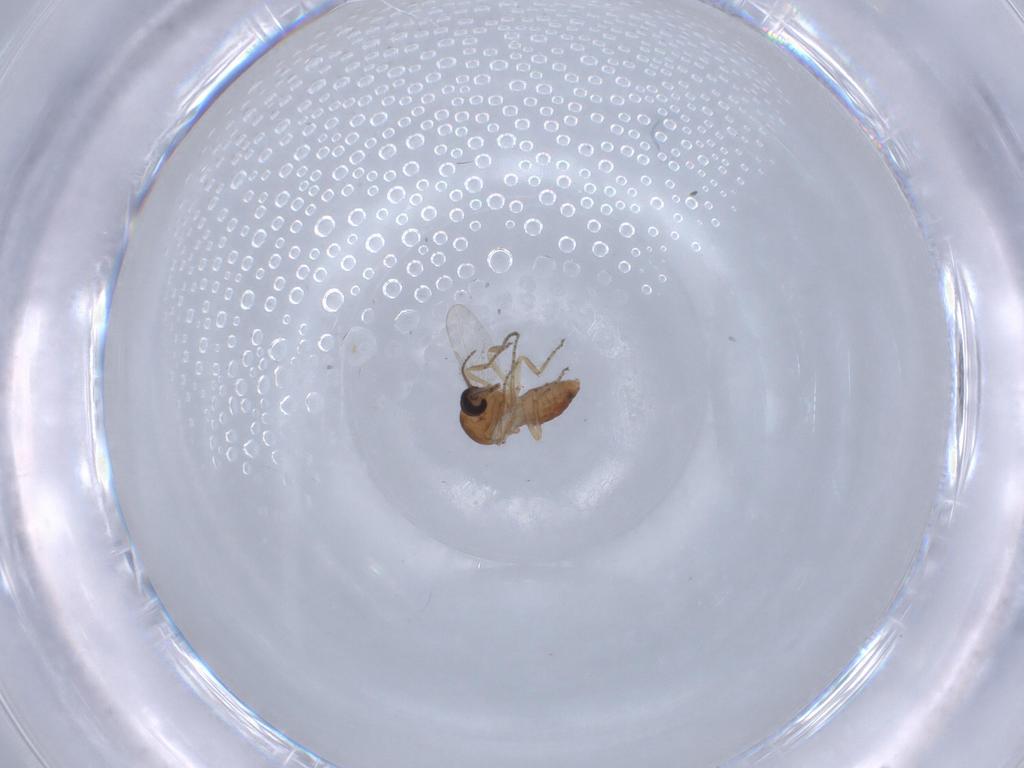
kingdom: Animalia
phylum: Arthropoda
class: Insecta
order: Diptera
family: Ceratopogonidae
